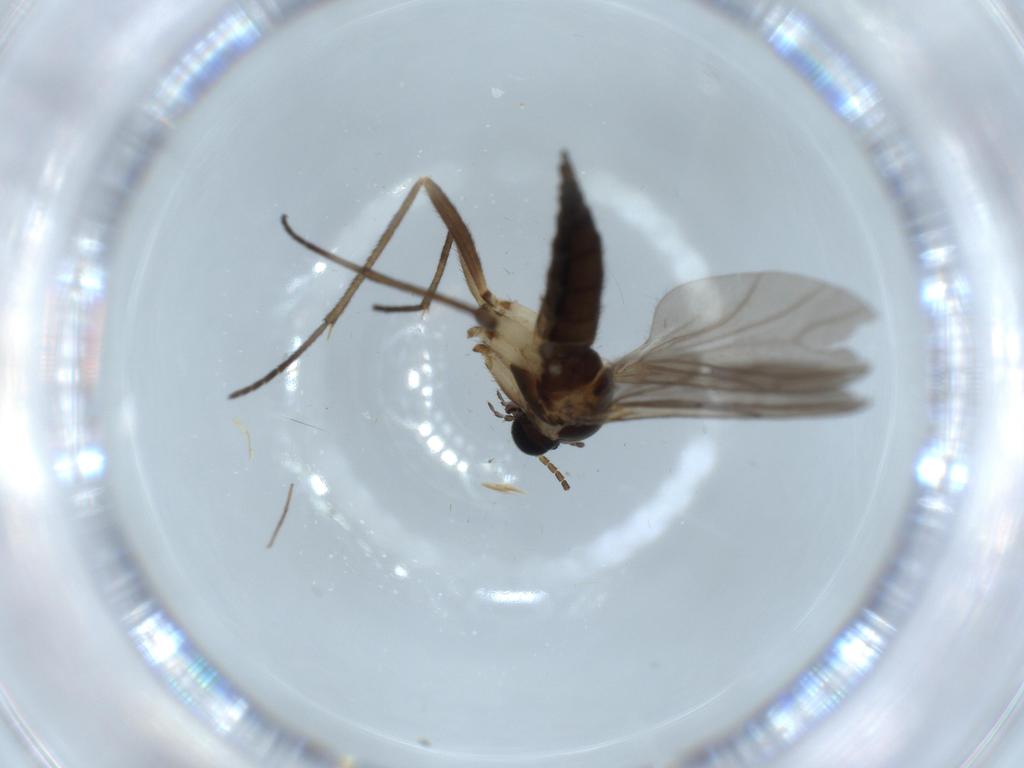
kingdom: Animalia
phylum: Arthropoda
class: Insecta
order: Diptera
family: Sciaridae
